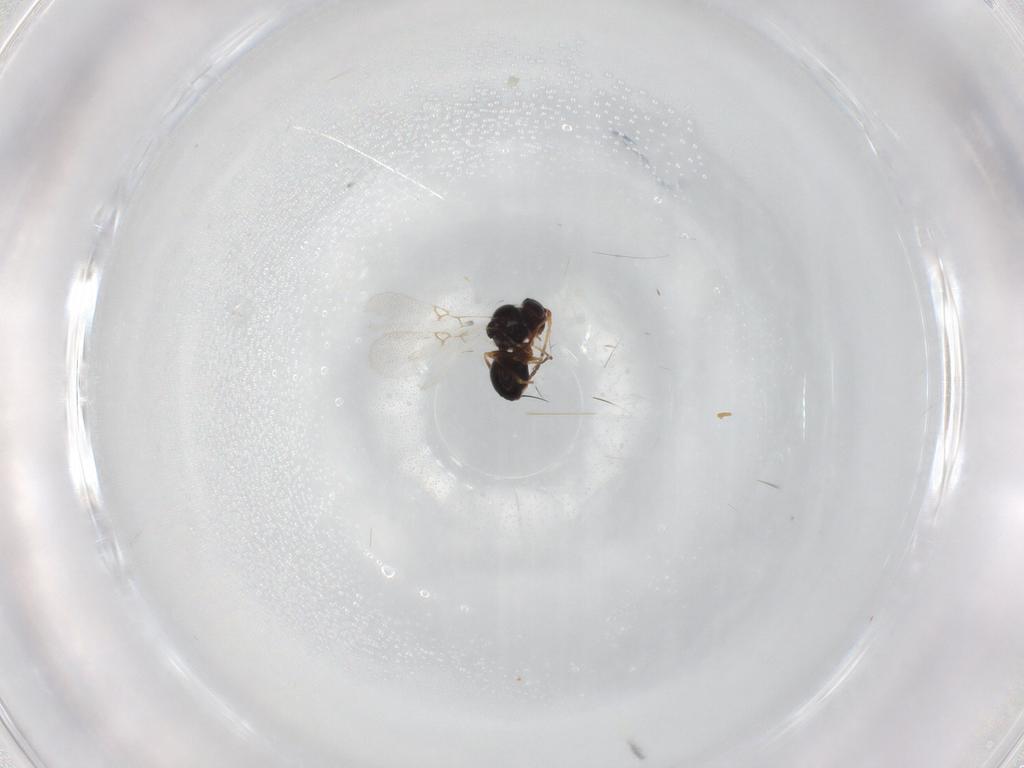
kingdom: Animalia
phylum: Arthropoda
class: Insecta
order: Hymenoptera
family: Figitidae
